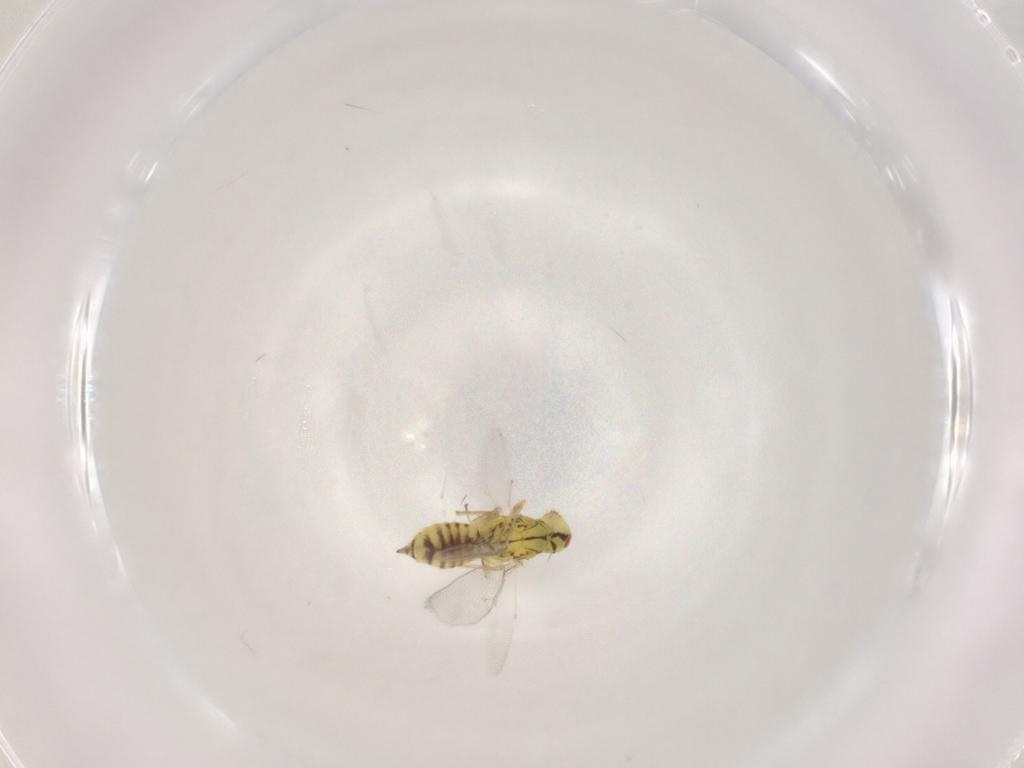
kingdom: Animalia
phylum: Arthropoda
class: Insecta
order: Hymenoptera
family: Eulophidae
